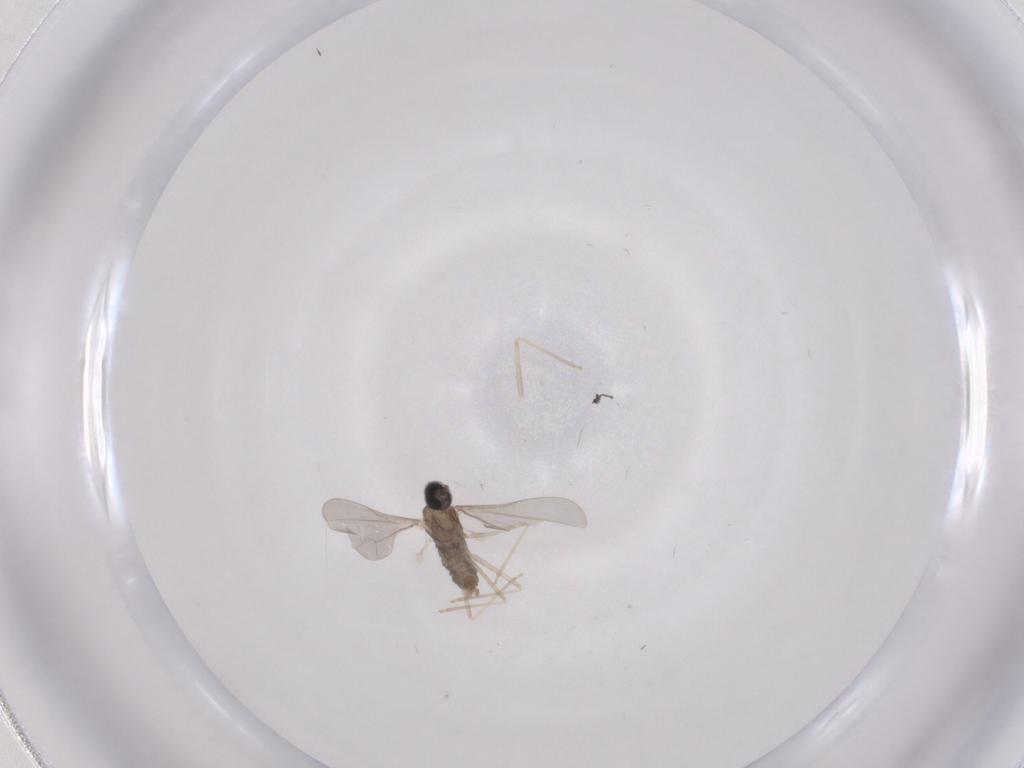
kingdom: Animalia
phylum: Arthropoda
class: Insecta
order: Diptera
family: Cecidomyiidae
